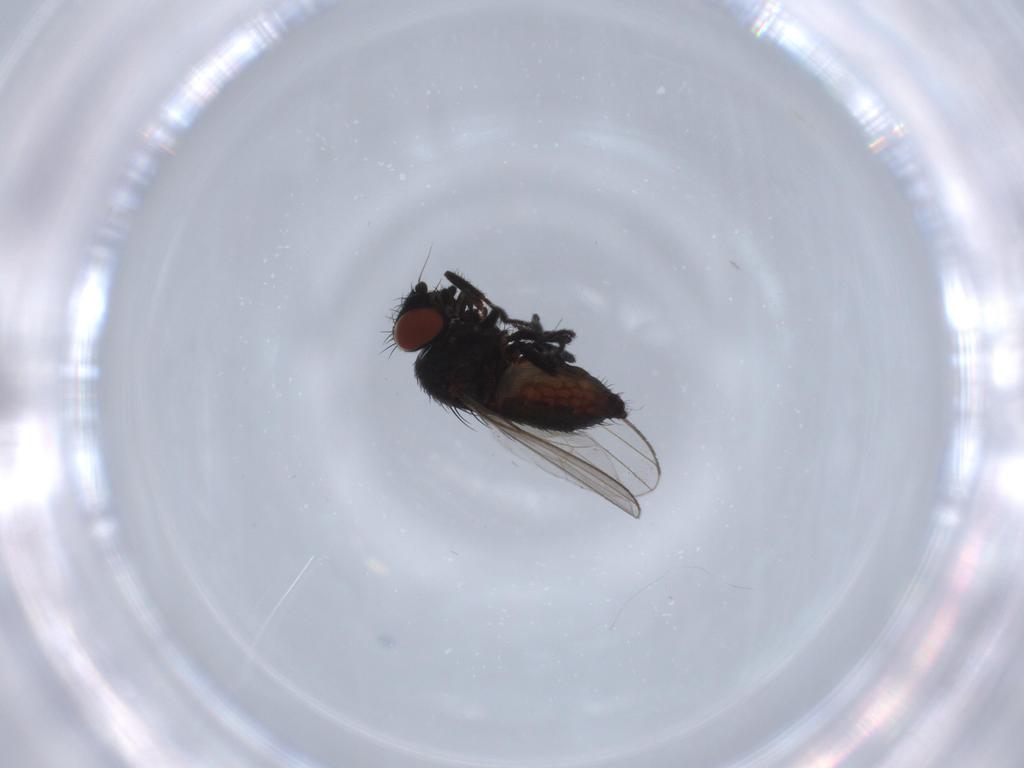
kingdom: Animalia
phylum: Arthropoda
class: Insecta
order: Diptera
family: Milichiidae
